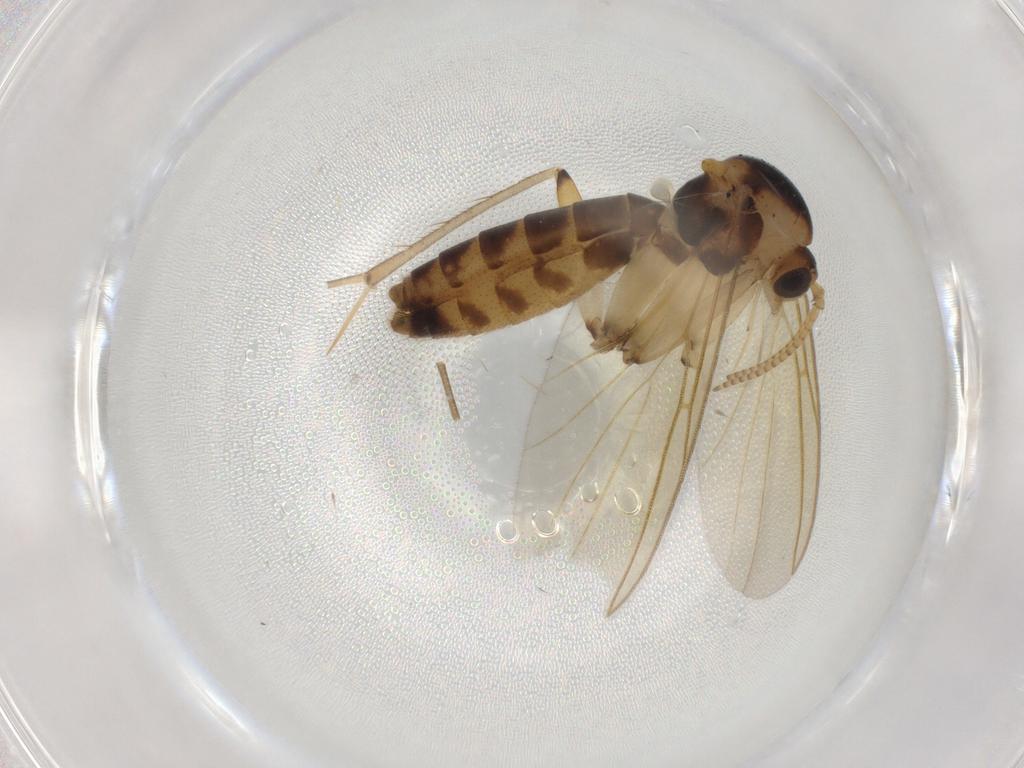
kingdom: Animalia
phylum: Arthropoda
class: Insecta
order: Diptera
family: Mycetophilidae
